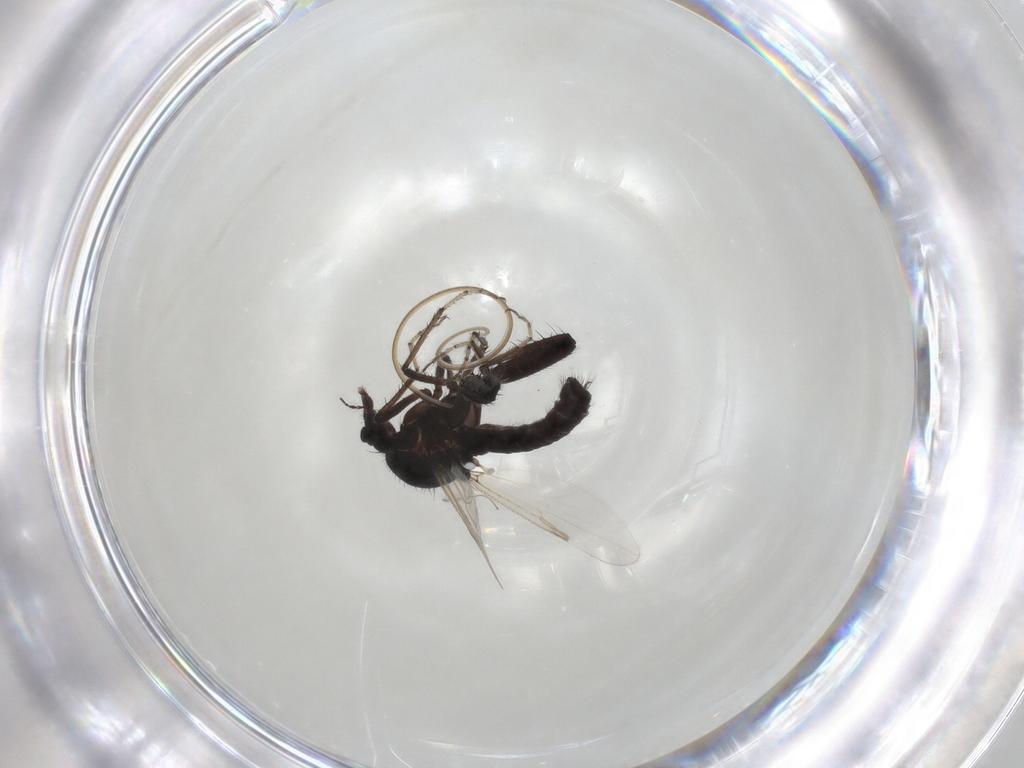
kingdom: Animalia
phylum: Arthropoda
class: Insecta
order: Diptera
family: Ceratopogonidae
